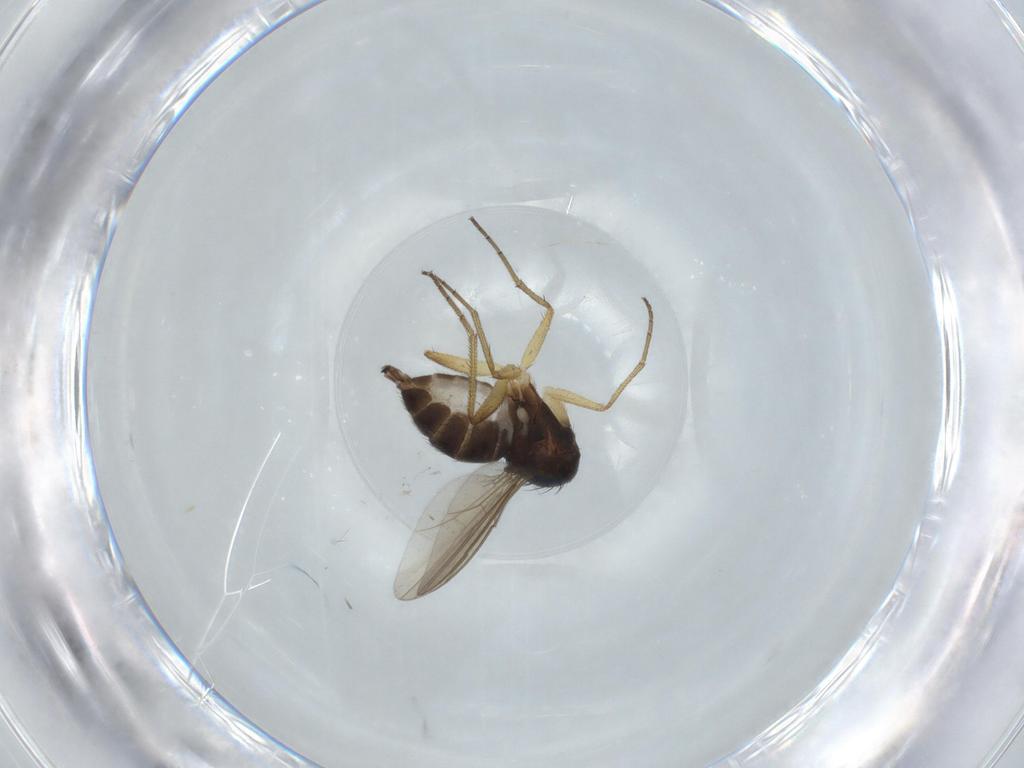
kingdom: Animalia
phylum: Arthropoda
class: Insecta
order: Diptera
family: Dolichopodidae
